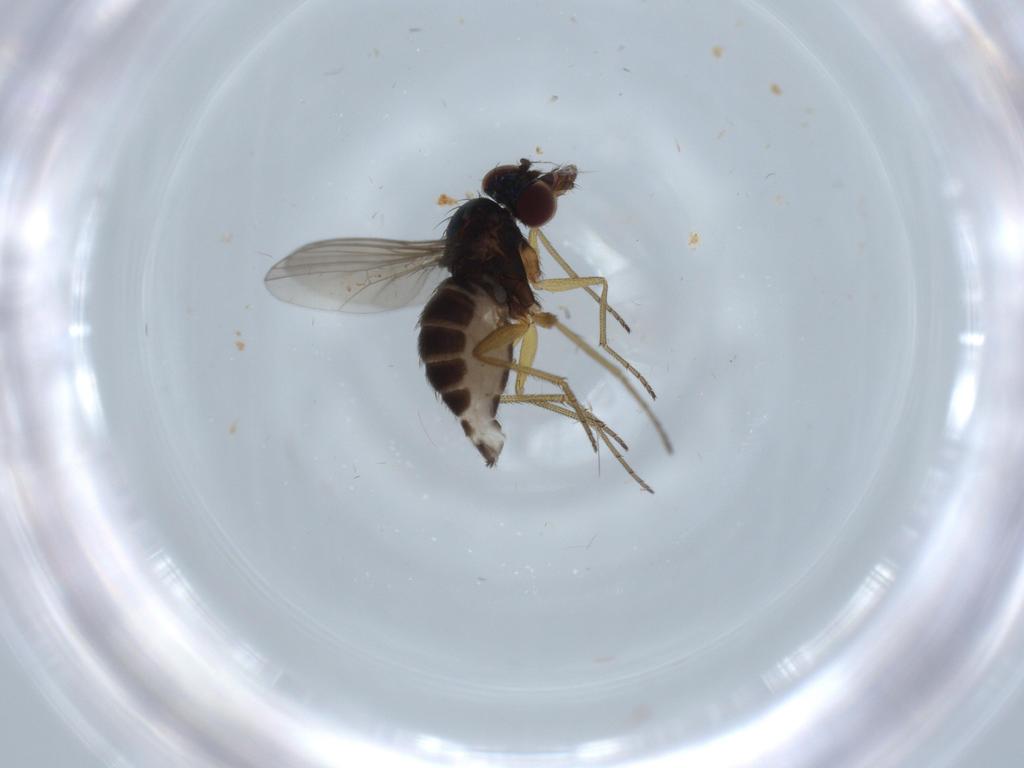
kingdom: Animalia
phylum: Arthropoda
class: Insecta
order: Diptera
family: Dolichopodidae
